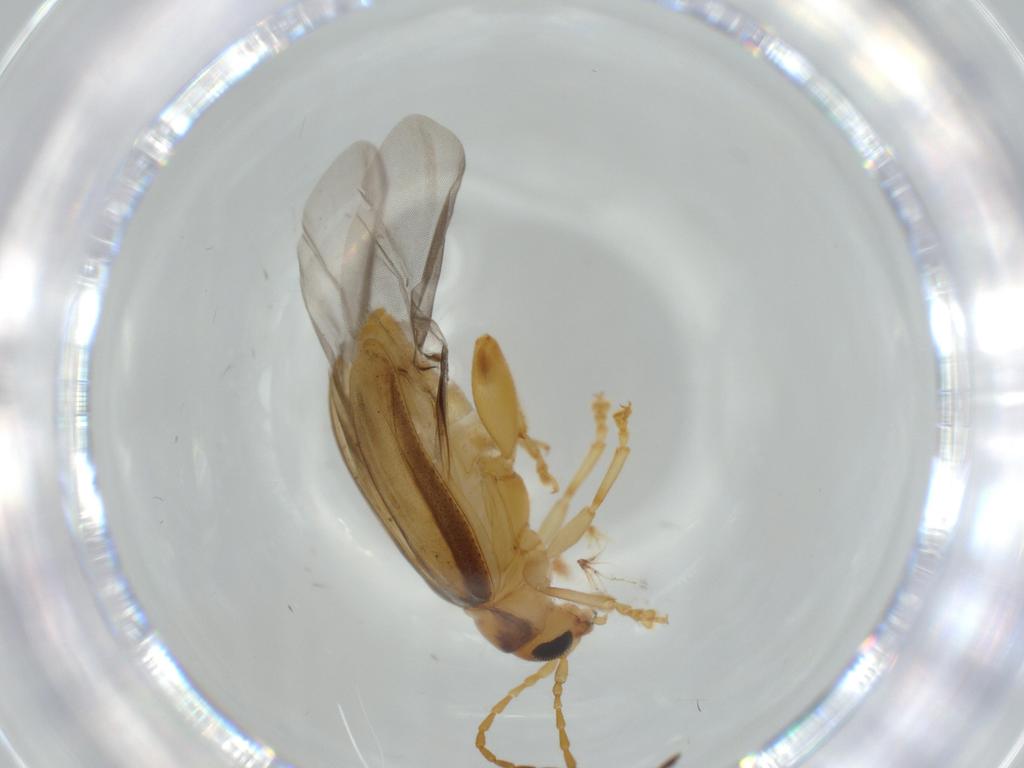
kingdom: Animalia
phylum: Arthropoda
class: Insecta
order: Coleoptera
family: Chrysomelidae
